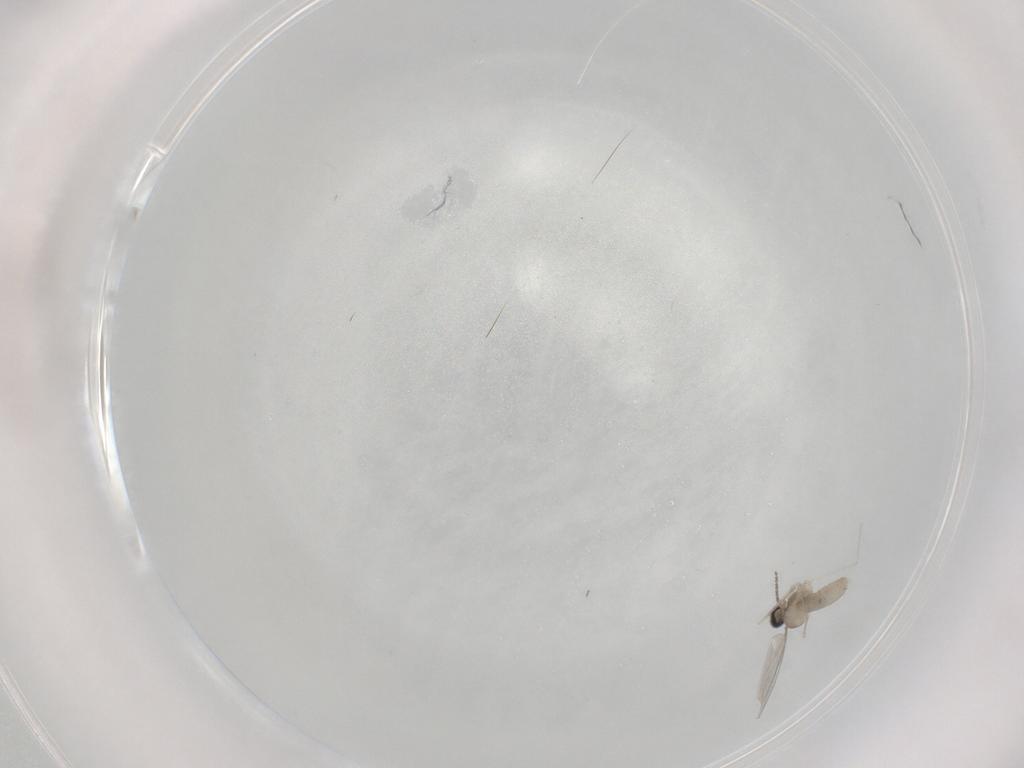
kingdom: Animalia
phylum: Arthropoda
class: Insecta
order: Diptera
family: Cecidomyiidae
